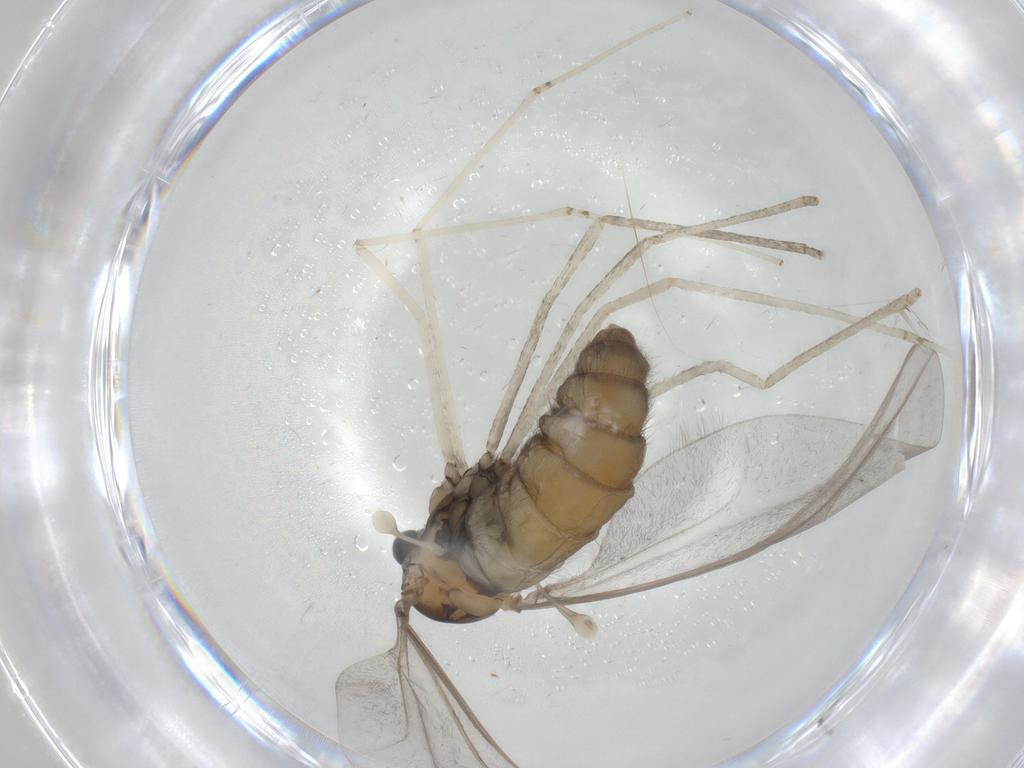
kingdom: Animalia
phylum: Arthropoda
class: Insecta
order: Diptera
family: Cecidomyiidae
